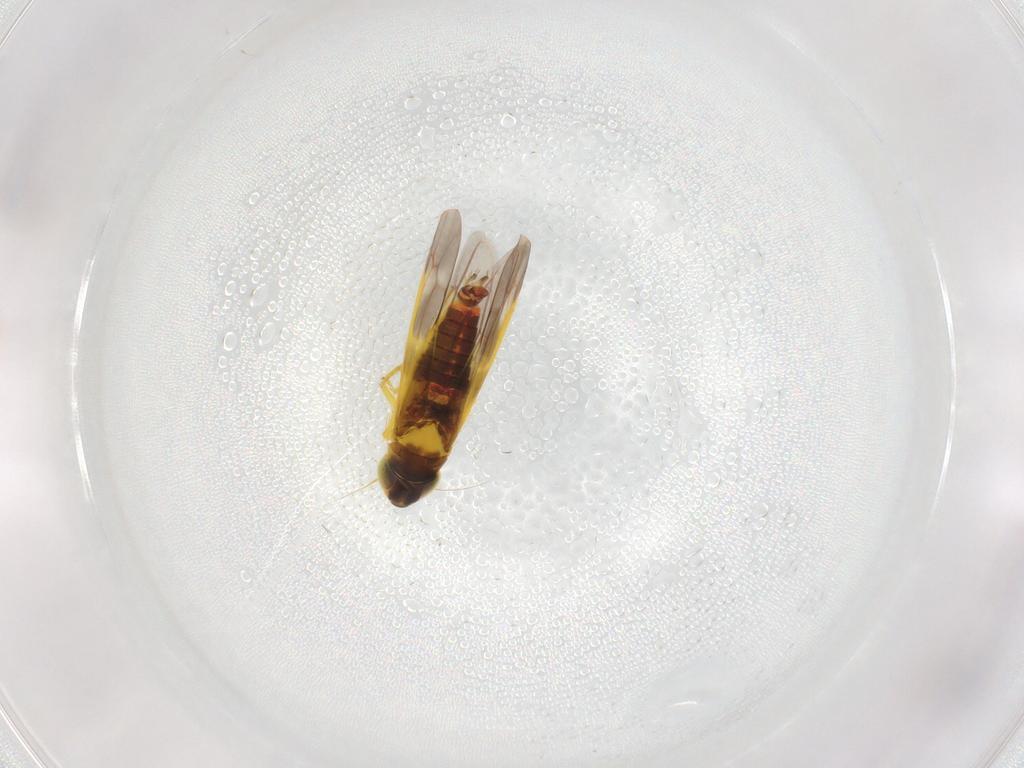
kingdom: Animalia
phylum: Arthropoda
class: Insecta
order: Hemiptera
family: Cicadellidae
